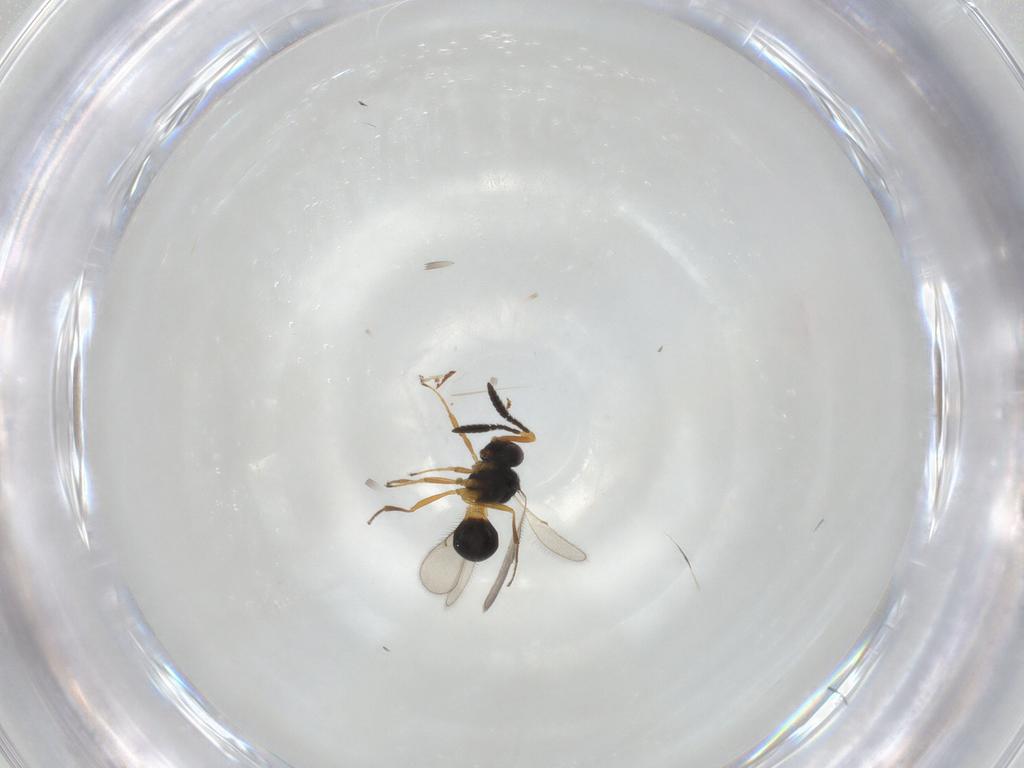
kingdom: Animalia
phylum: Arthropoda
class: Insecta
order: Hymenoptera
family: Scelionidae
